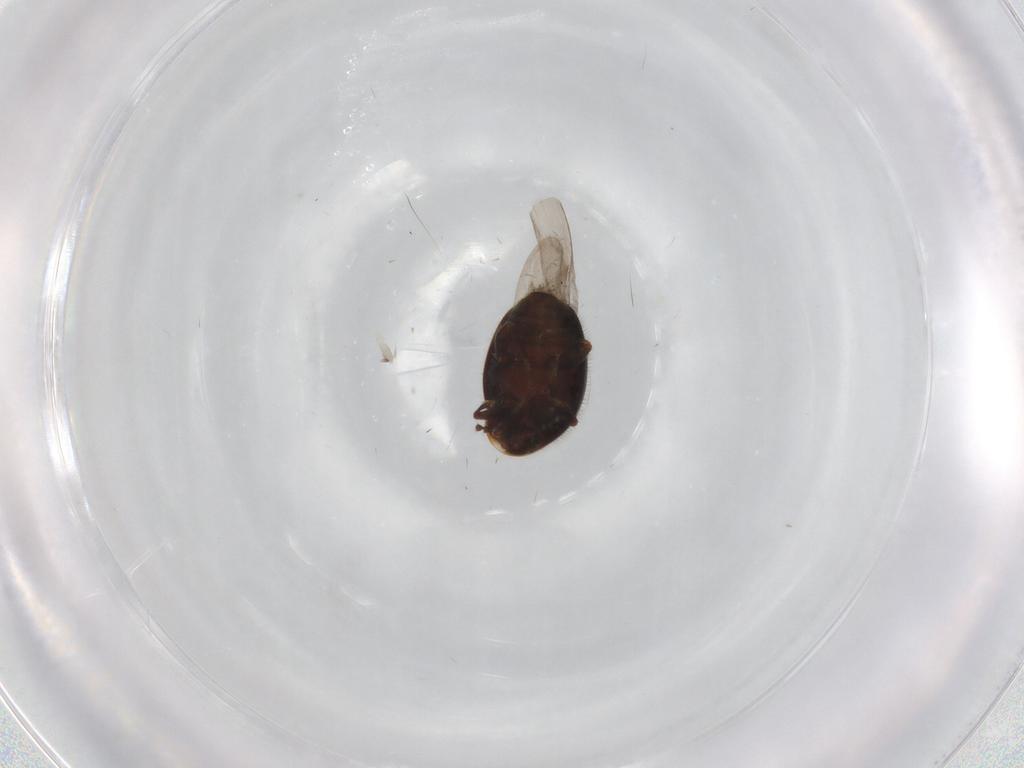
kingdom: Animalia
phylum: Arthropoda
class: Insecta
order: Coleoptera
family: Corylophidae
